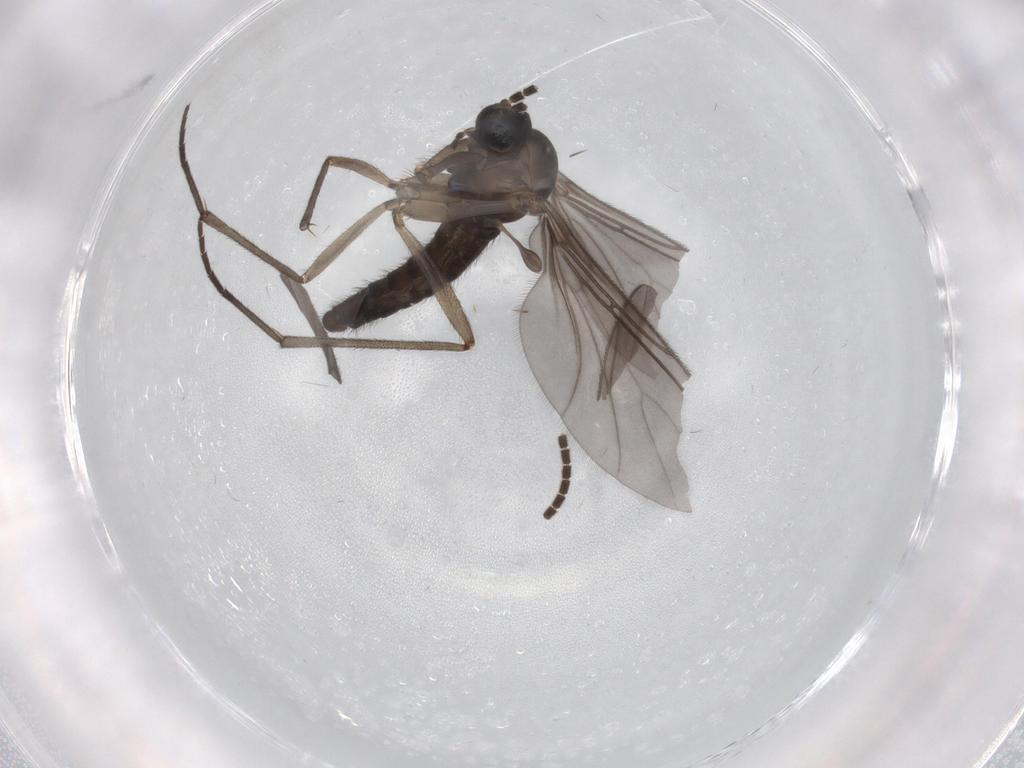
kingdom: Animalia
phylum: Arthropoda
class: Insecta
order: Diptera
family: Sciaridae
